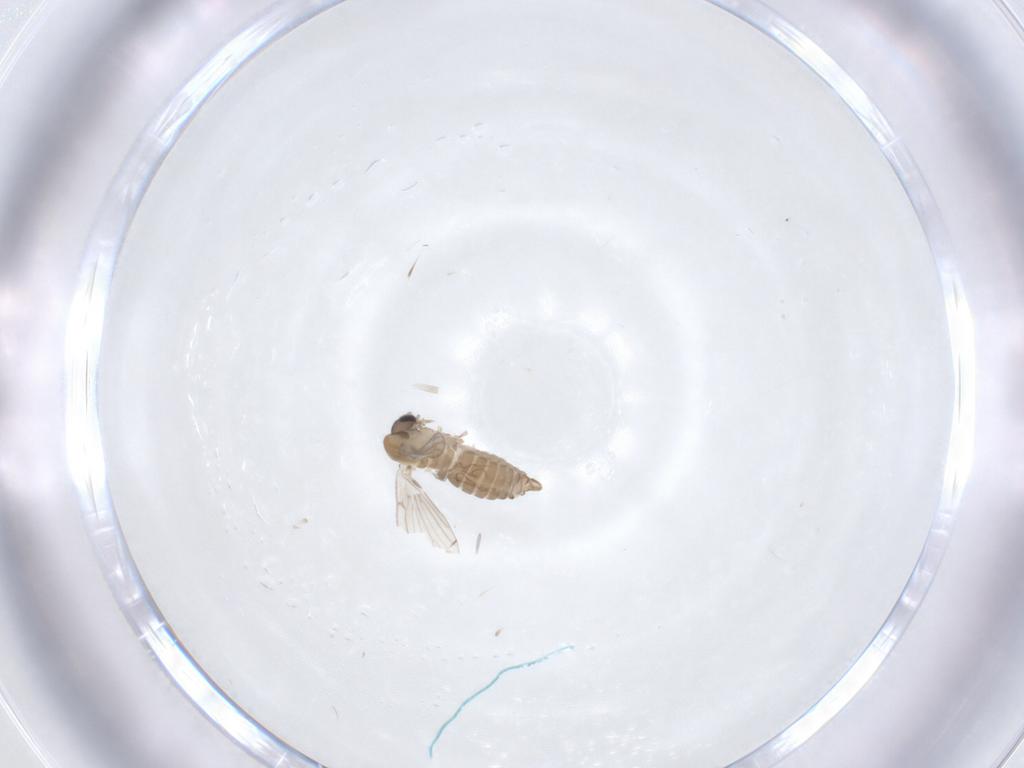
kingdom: Animalia
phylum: Arthropoda
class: Insecta
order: Diptera
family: Psychodidae
